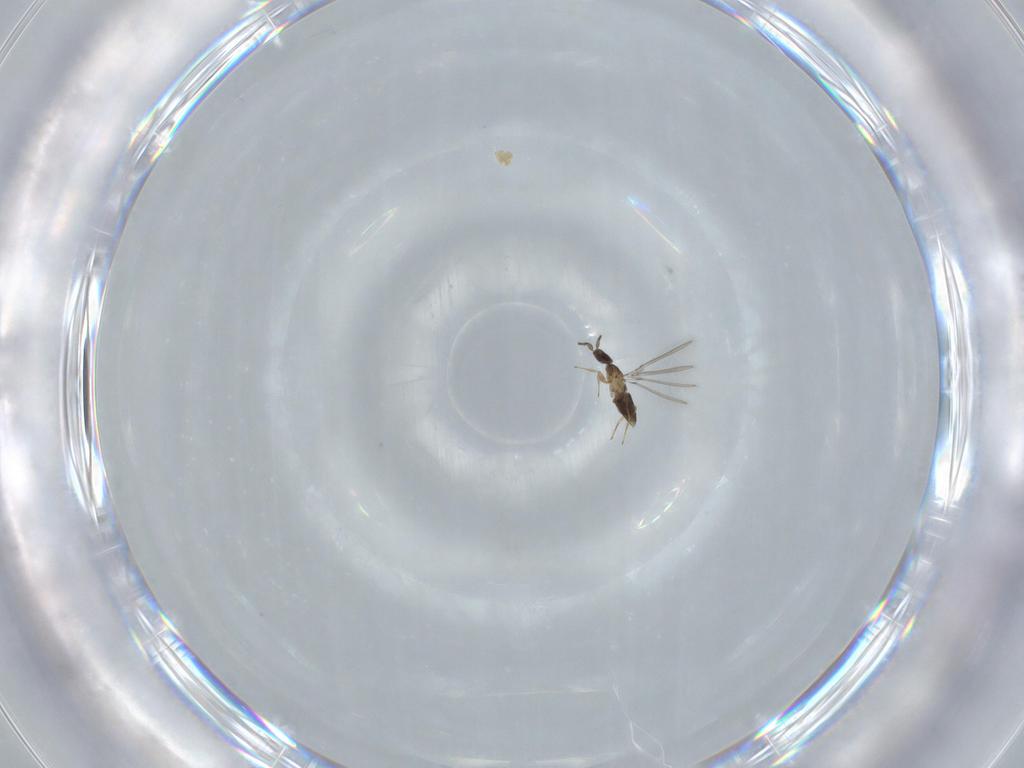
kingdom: Animalia
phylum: Arthropoda
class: Insecta
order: Hymenoptera
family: Mymaridae
